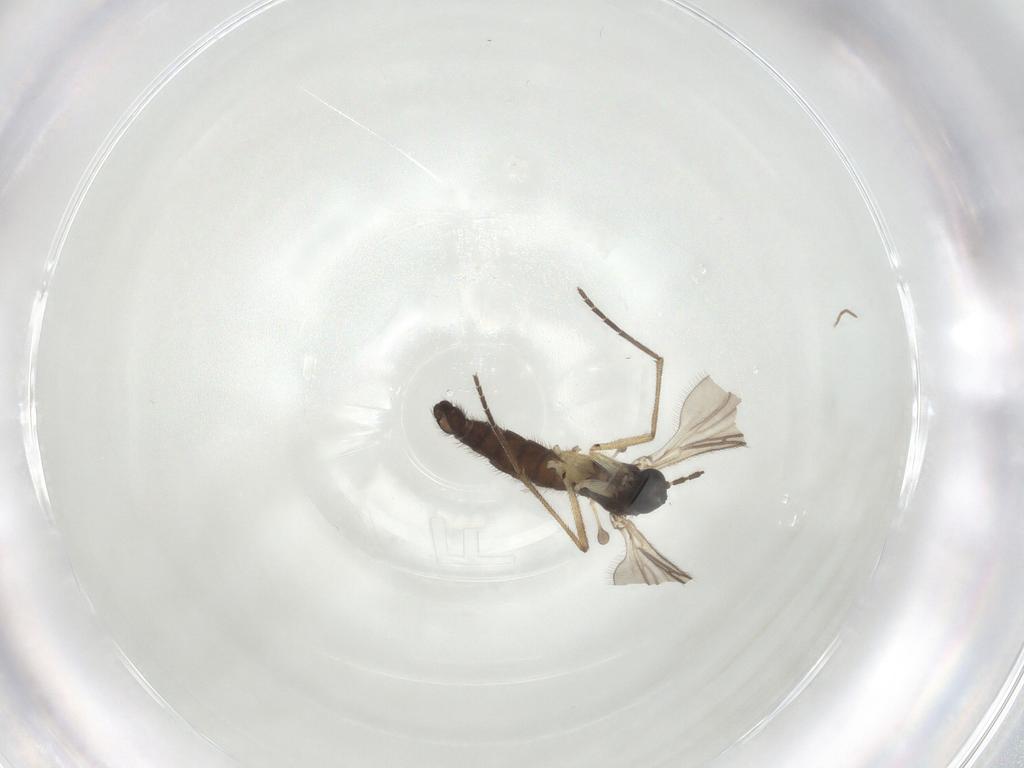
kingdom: Animalia
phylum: Arthropoda
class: Insecta
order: Diptera
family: Sciaridae
